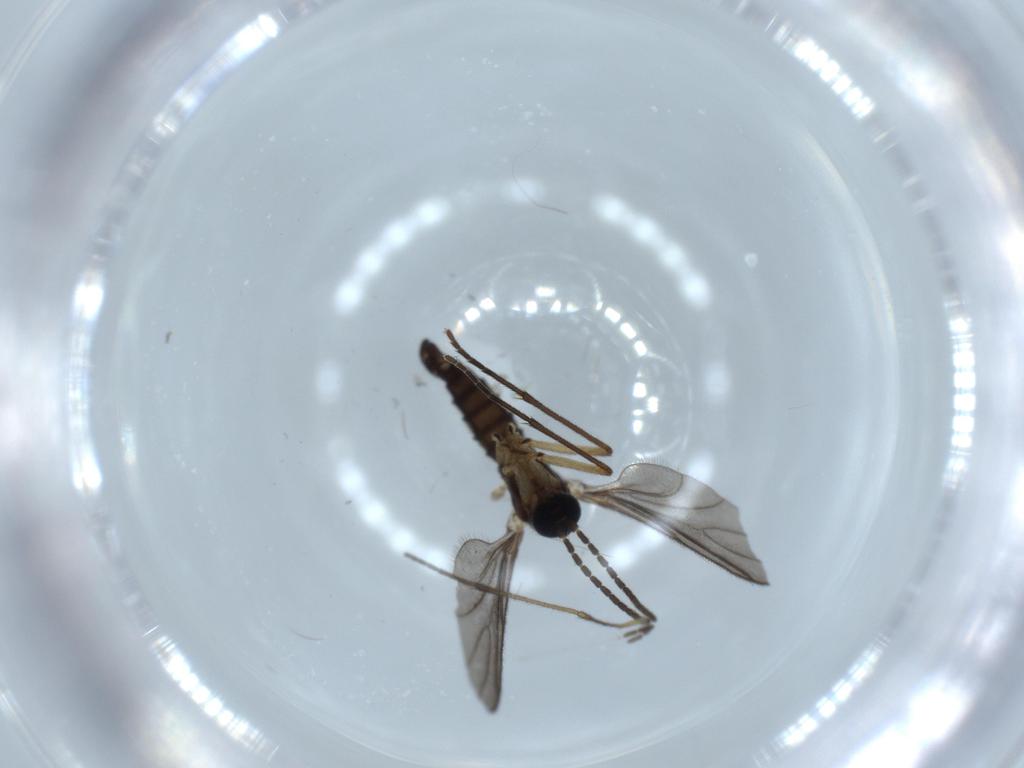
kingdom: Animalia
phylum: Arthropoda
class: Insecta
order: Diptera
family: Sciaridae
